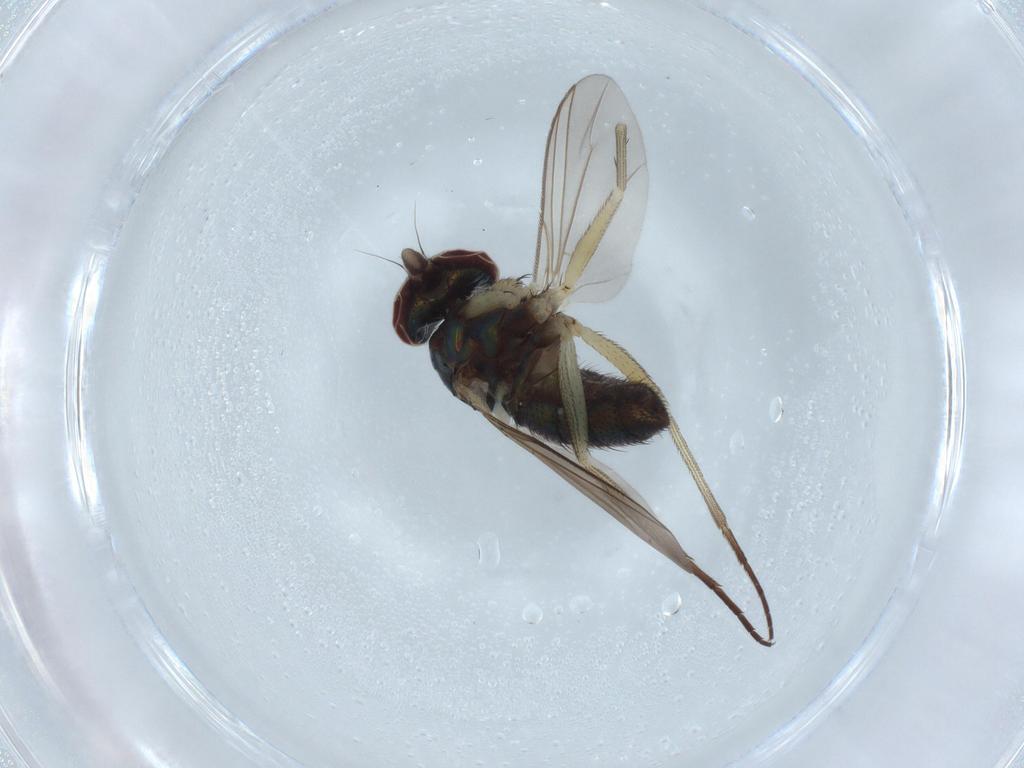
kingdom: Animalia
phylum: Arthropoda
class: Insecta
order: Diptera
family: Dolichopodidae
